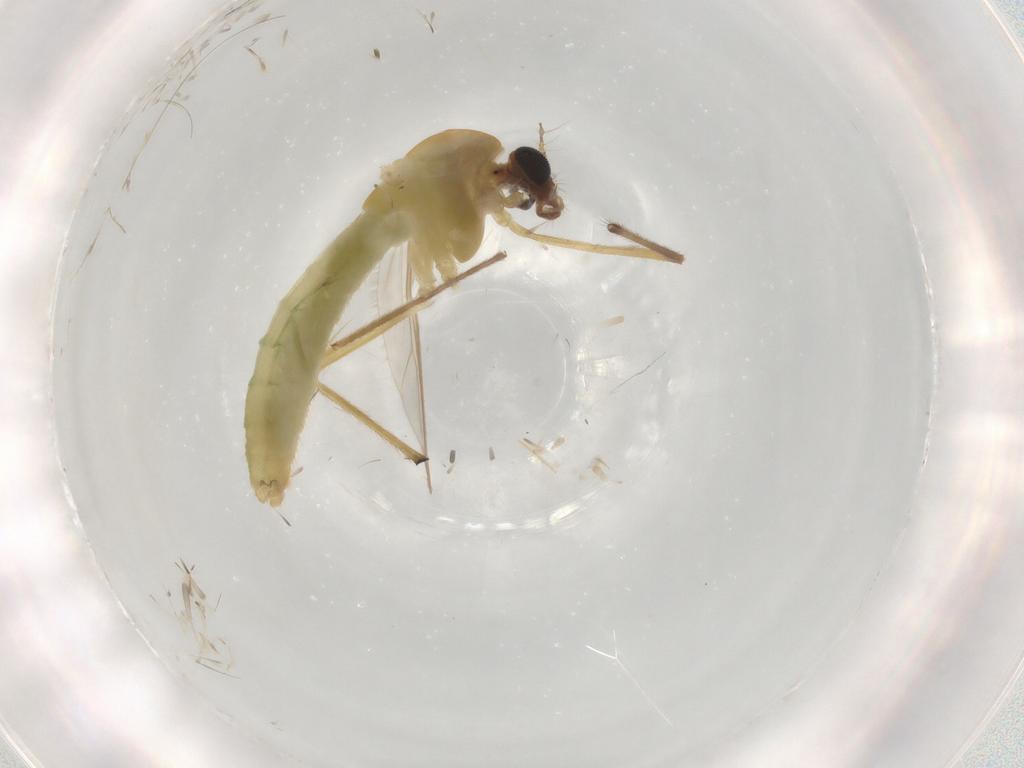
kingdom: Animalia
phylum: Arthropoda
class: Insecta
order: Diptera
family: Chironomidae
